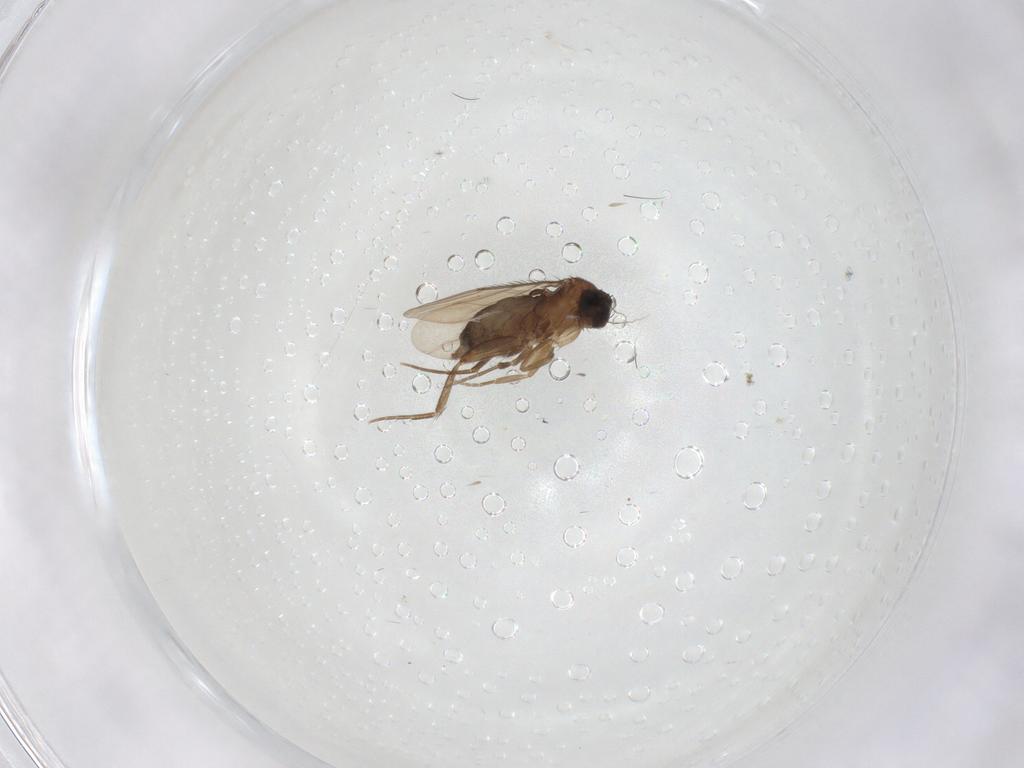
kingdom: Animalia
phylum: Arthropoda
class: Insecta
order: Diptera
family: Phoridae
